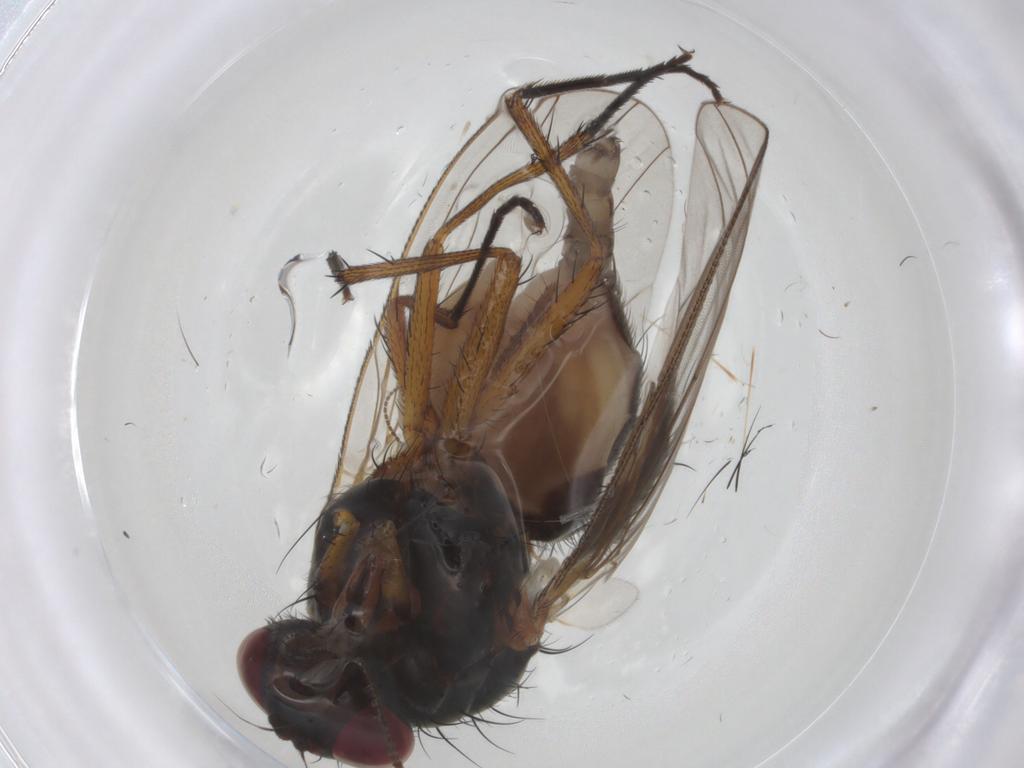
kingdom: Animalia
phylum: Arthropoda
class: Insecta
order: Diptera
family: Anthomyiidae
